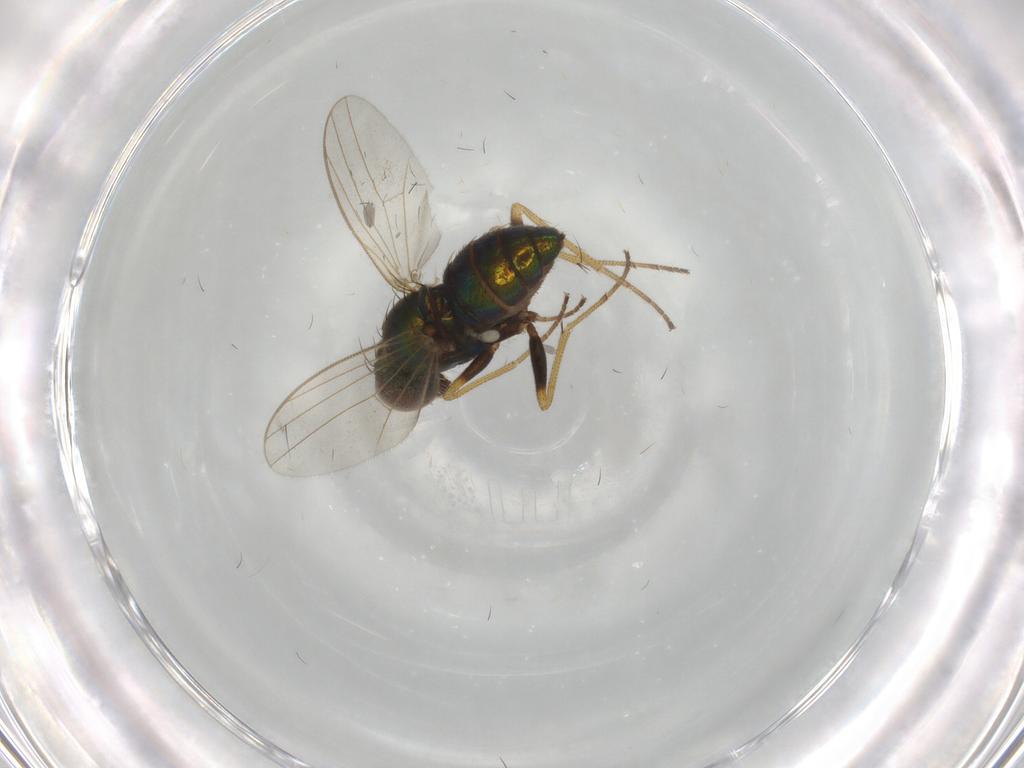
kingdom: Animalia
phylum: Arthropoda
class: Insecta
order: Diptera
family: Dolichopodidae
